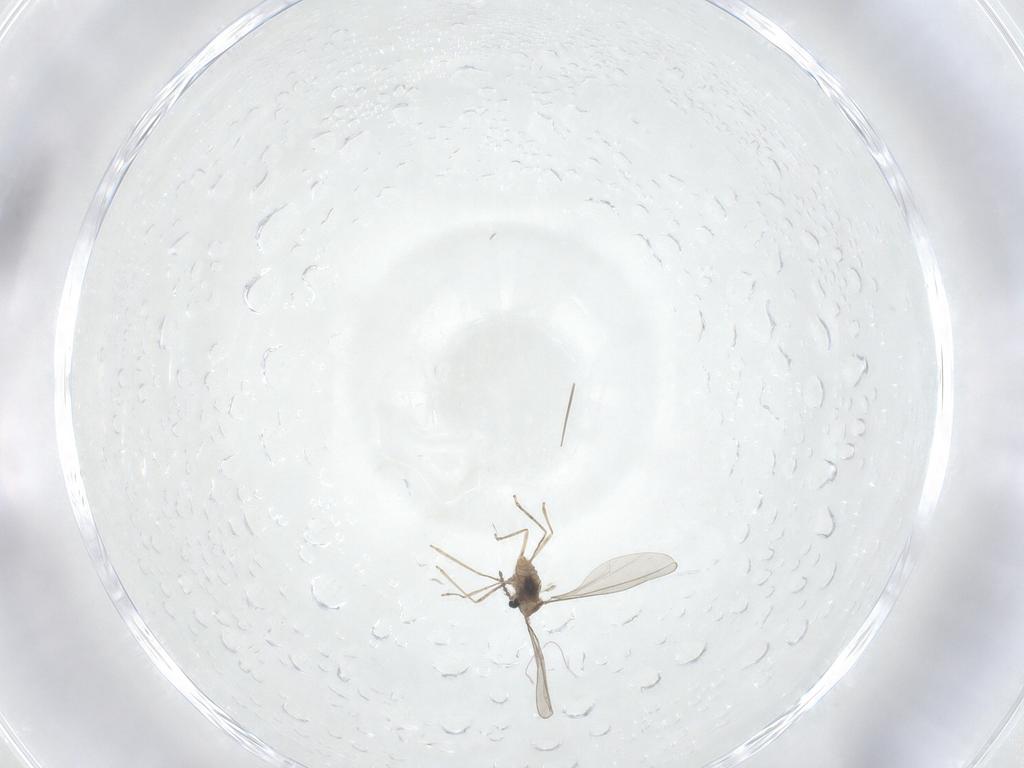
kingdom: Animalia
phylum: Arthropoda
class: Insecta
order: Diptera
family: Cecidomyiidae
